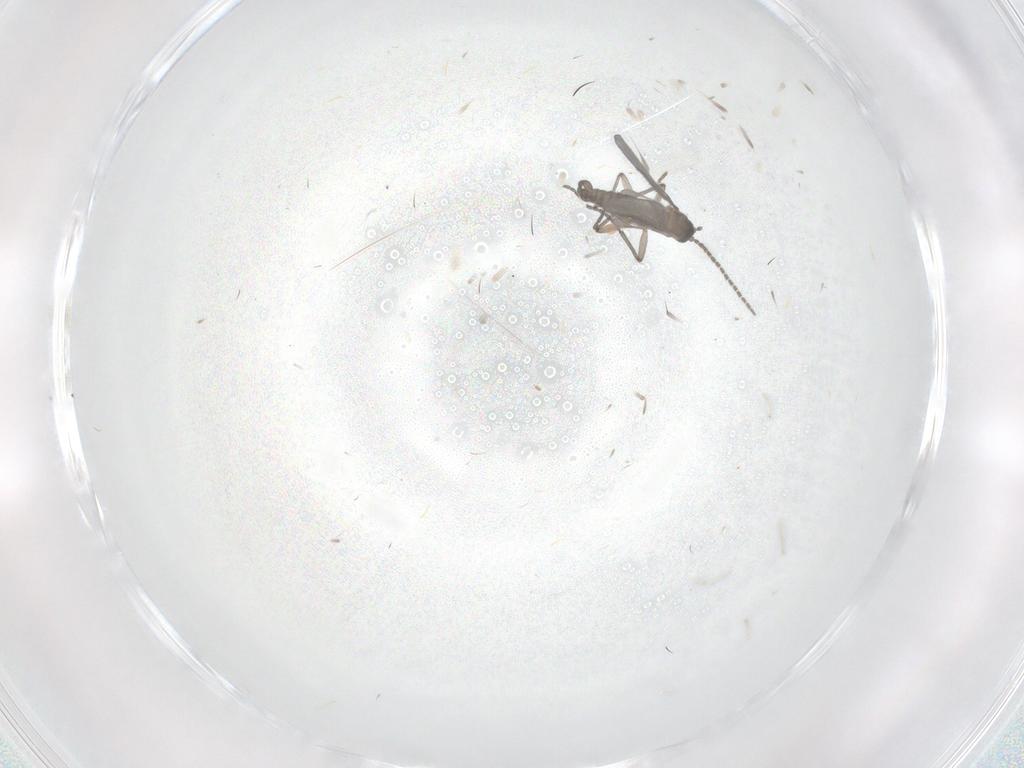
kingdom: Animalia
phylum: Arthropoda
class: Insecta
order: Diptera
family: Sciaridae
